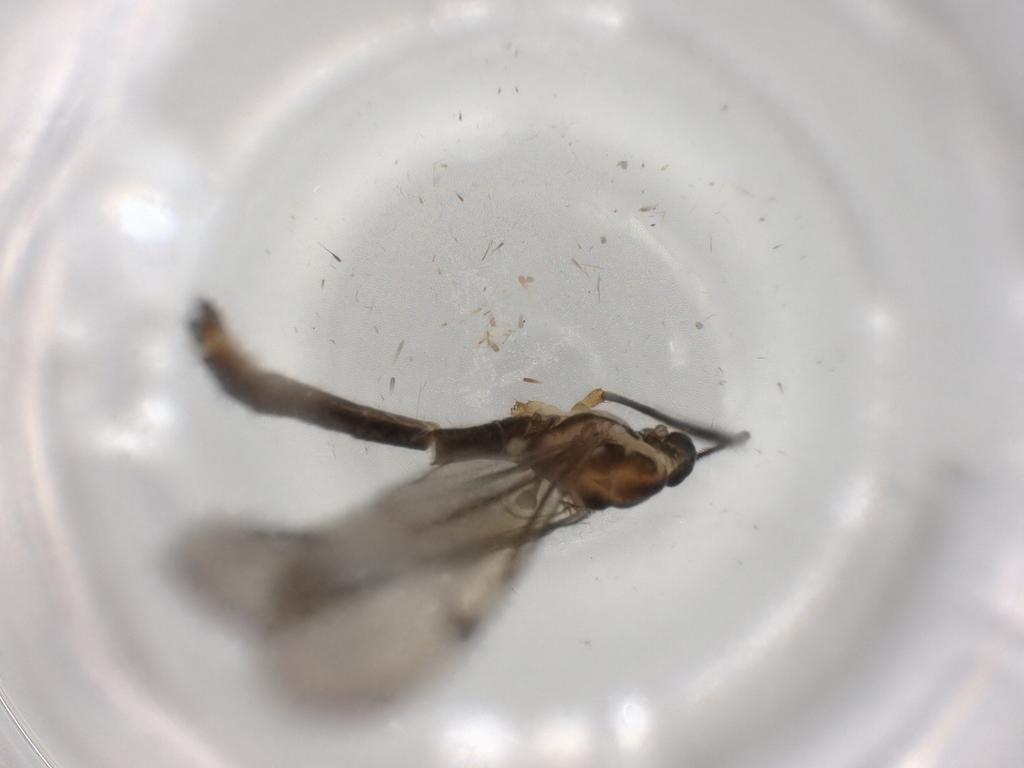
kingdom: Animalia
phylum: Arthropoda
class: Insecta
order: Diptera
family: Limoniidae
